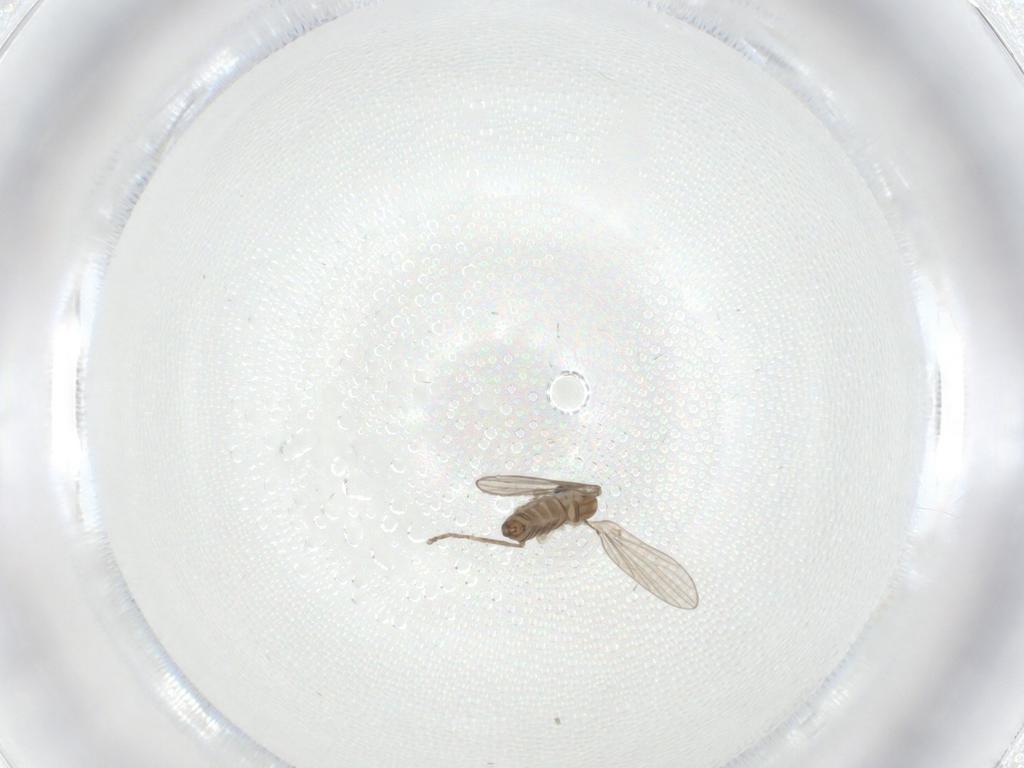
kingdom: Animalia
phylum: Arthropoda
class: Insecta
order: Diptera
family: Psychodidae
